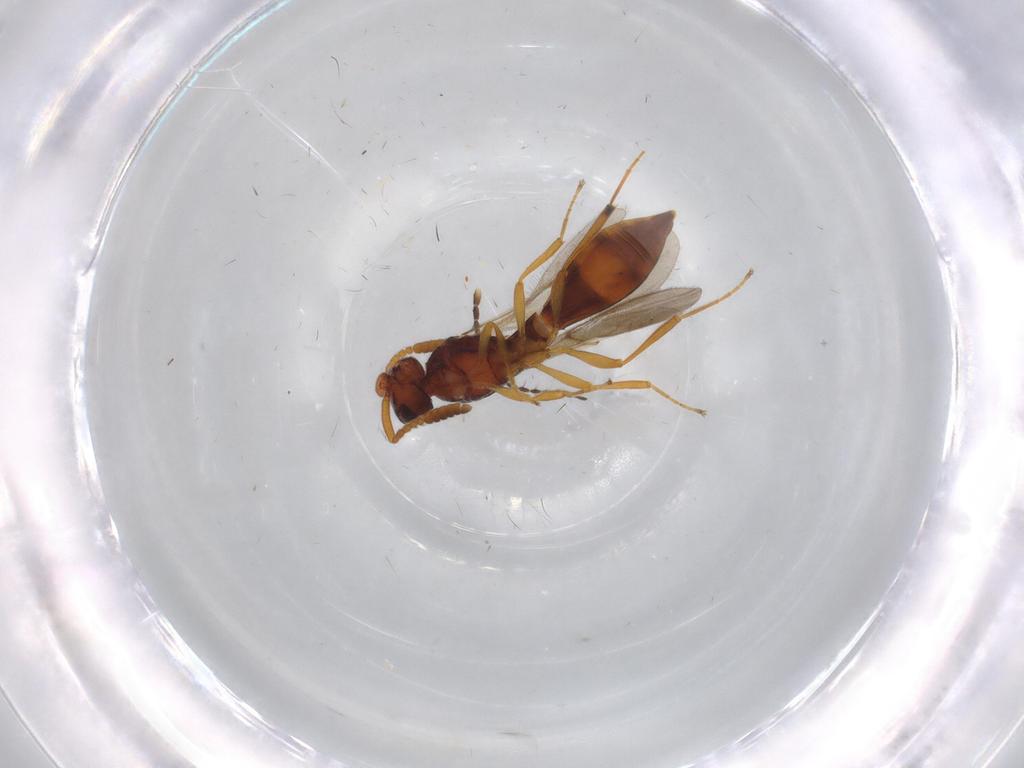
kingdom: Animalia
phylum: Arthropoda
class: Insecta
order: Hymenoptera
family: Scelionidae
